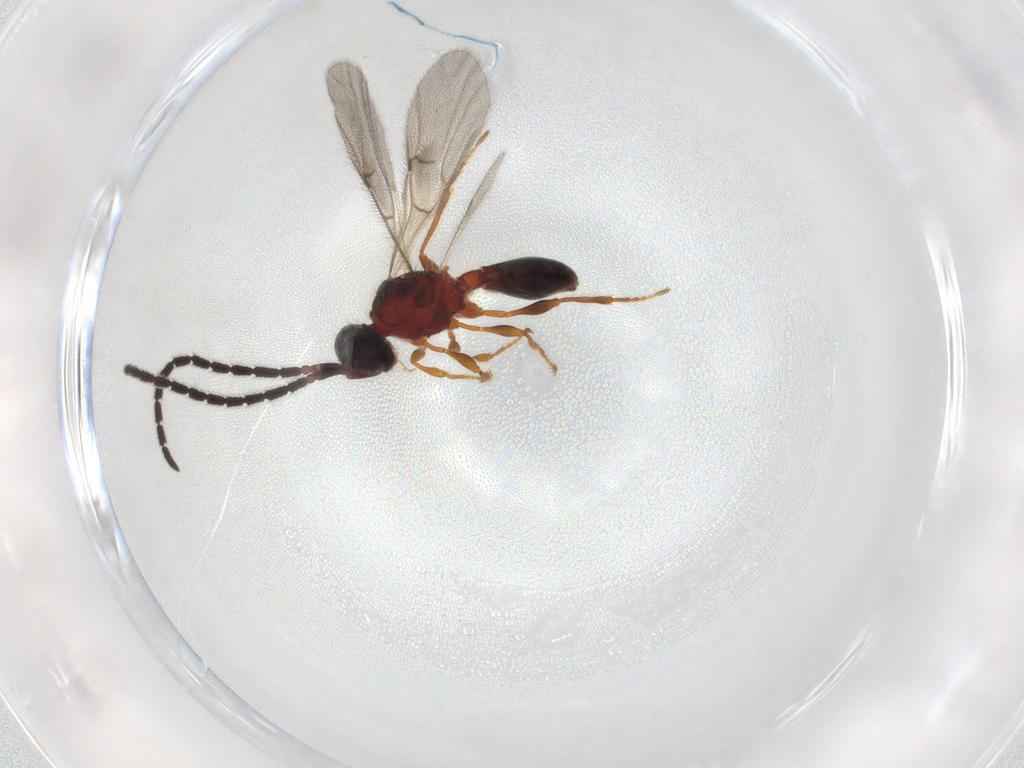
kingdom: Animalia
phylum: Arthropoda
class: Insecta
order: Hymenoptera
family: Diapriidae
